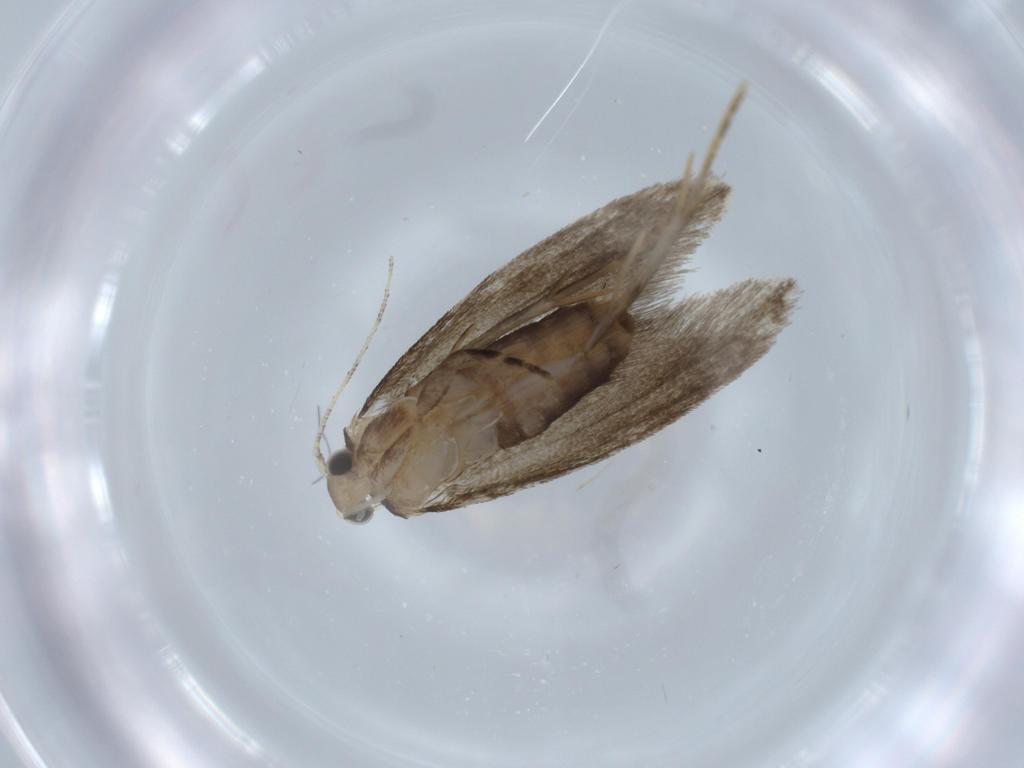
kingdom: Animalia
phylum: Arthropoda
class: Insecta
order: Lepidoptera
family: Tineidae
